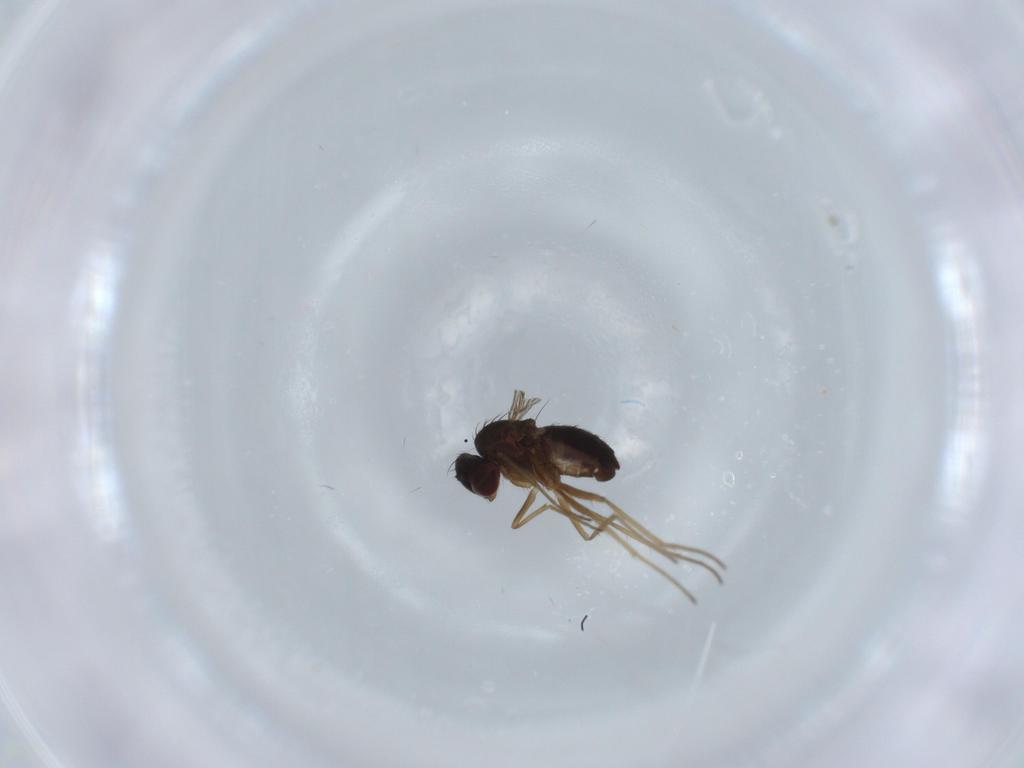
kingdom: Animalia
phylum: Arthropoda
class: Insecta
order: Diptera
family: Dolichopodidae
